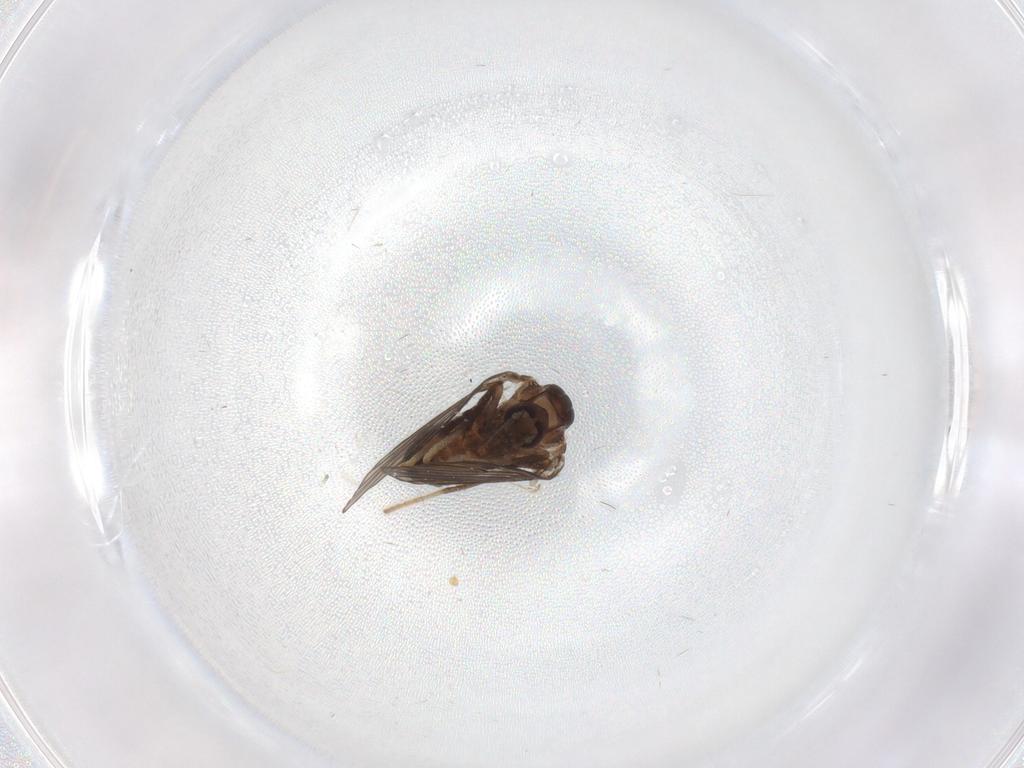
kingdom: Animalia
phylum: Arthropoda
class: Insecta
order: Diptera
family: Psychodidae
